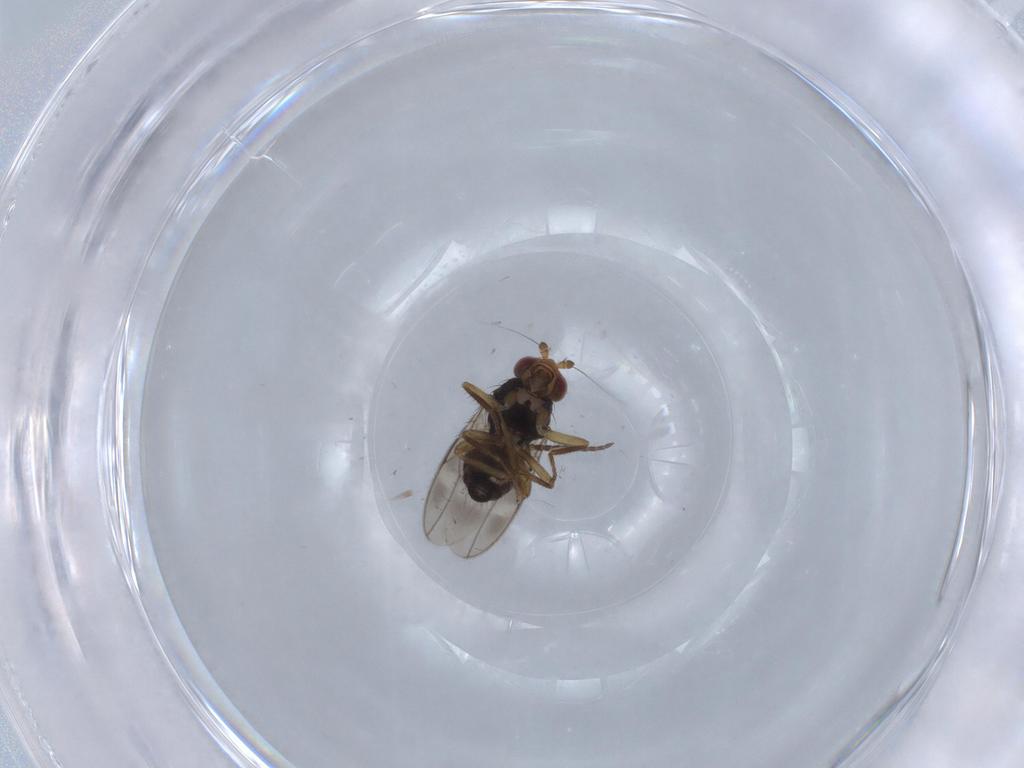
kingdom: Animalia
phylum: Arthropoda
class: Insecta
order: Diptera
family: Sphaeroceridae
